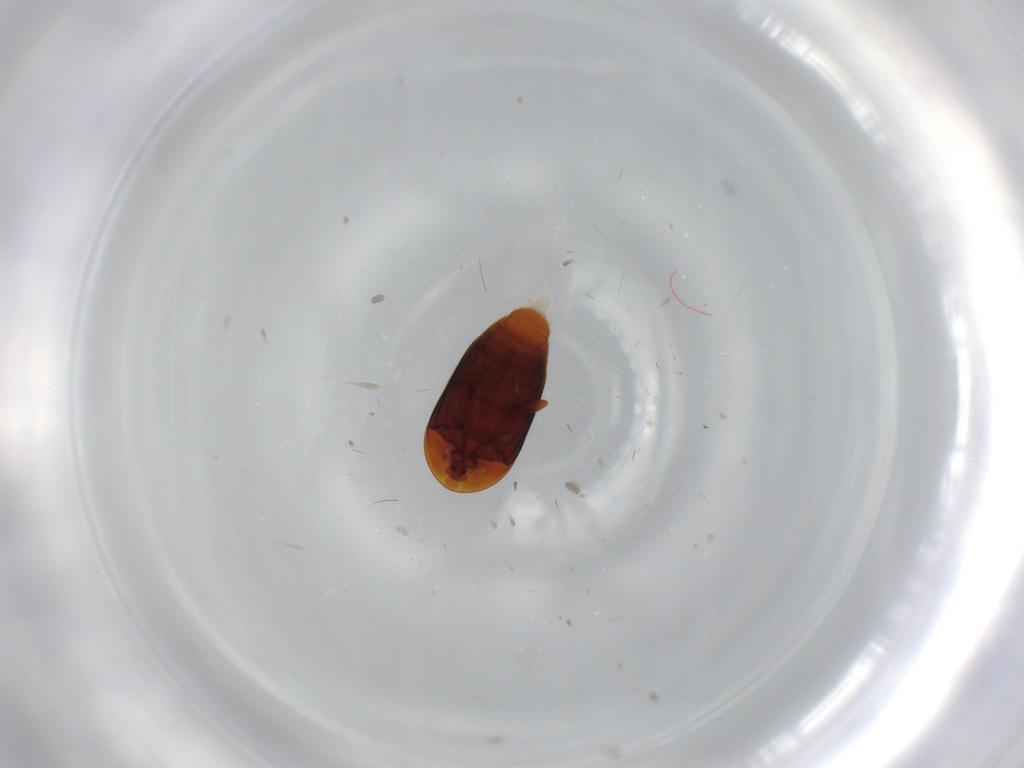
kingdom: Animalia
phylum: Arthropoda
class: Insecta
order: Coleoptera
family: Corylophidae
